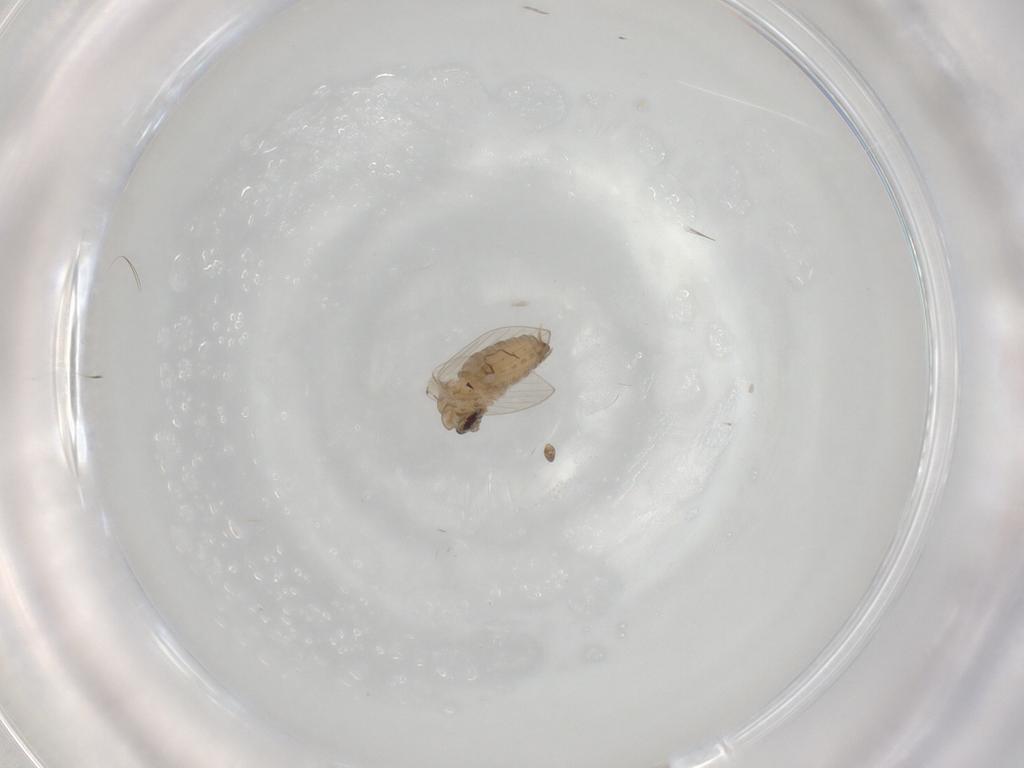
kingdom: Animalia
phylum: Arthropoda
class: Insecta
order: Diptera
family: Psychodidae
